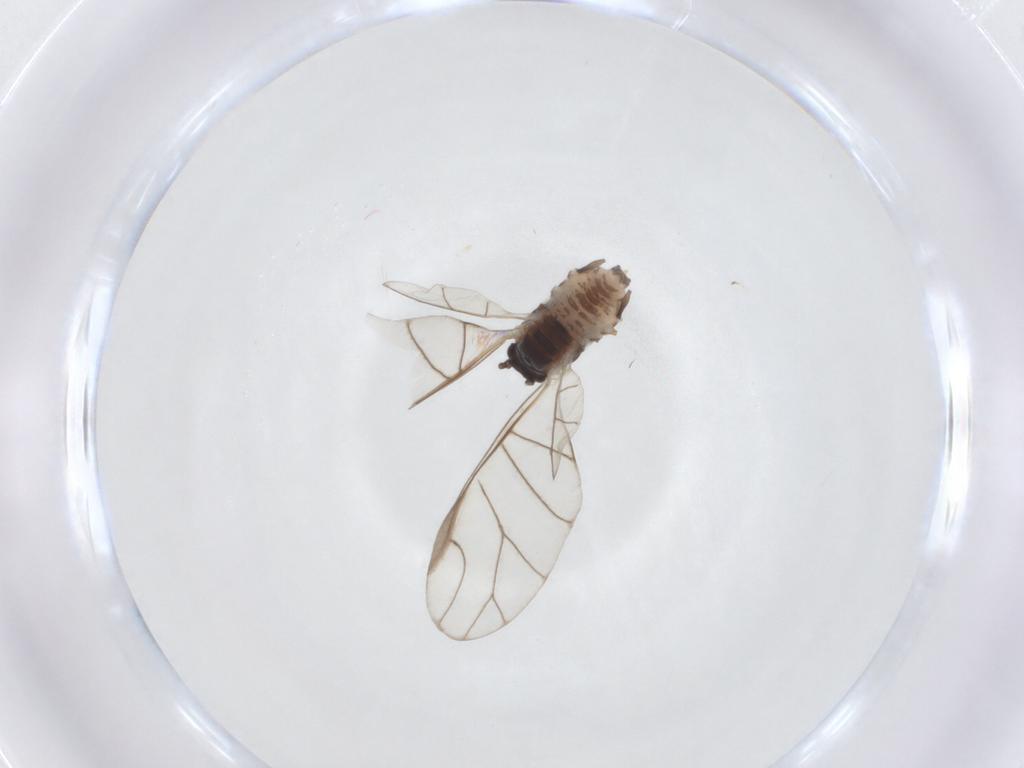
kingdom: Animalia
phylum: Arthropoda
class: Insecta
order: Hemiptera
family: Aphididae
